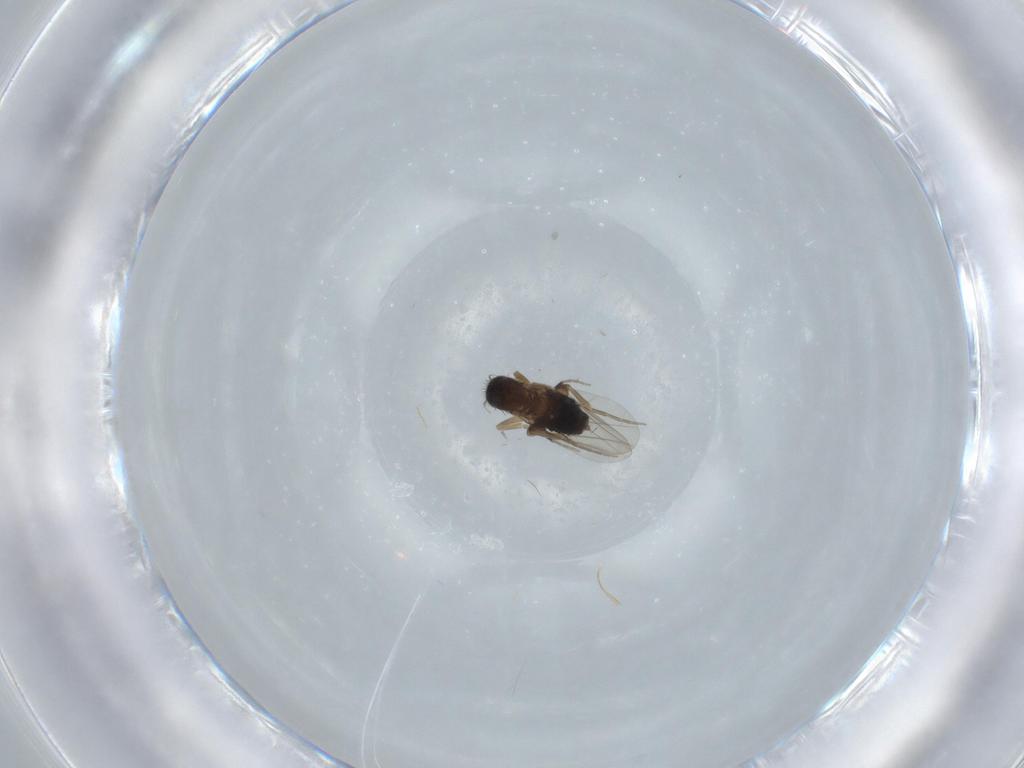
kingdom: Animalia
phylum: Arthropoda
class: Insecta
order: Diptera
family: Phoridae
